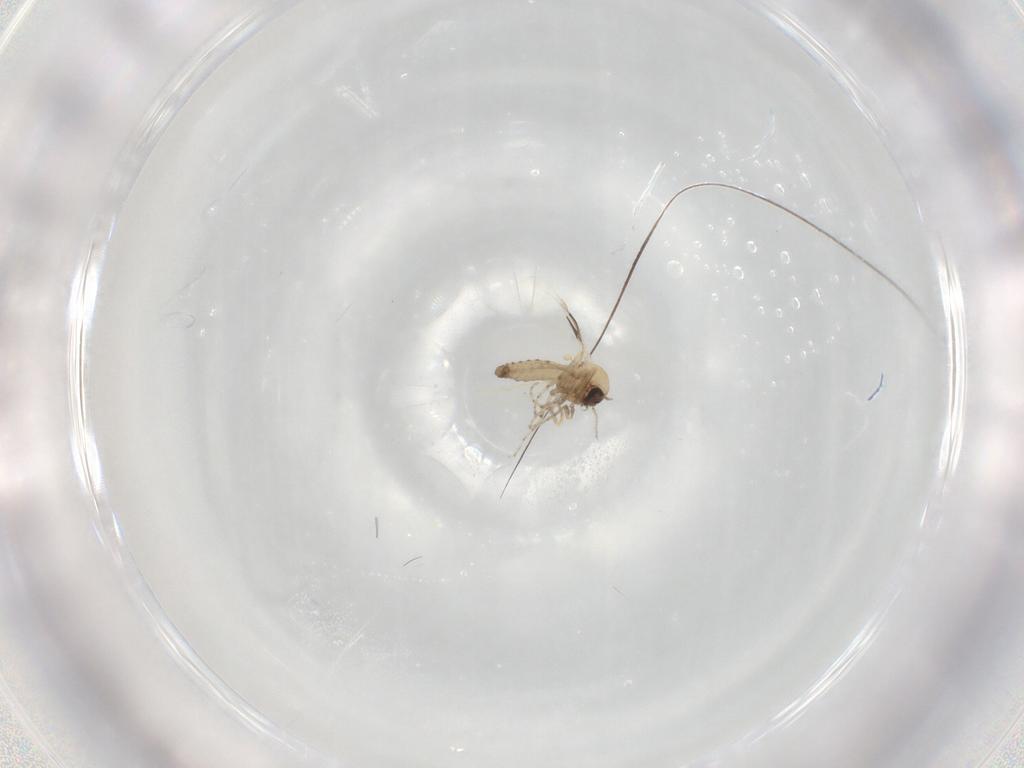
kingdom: Animalia
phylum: Arthropoda
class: Insecta
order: Diptera
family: Ceratopogonidae
